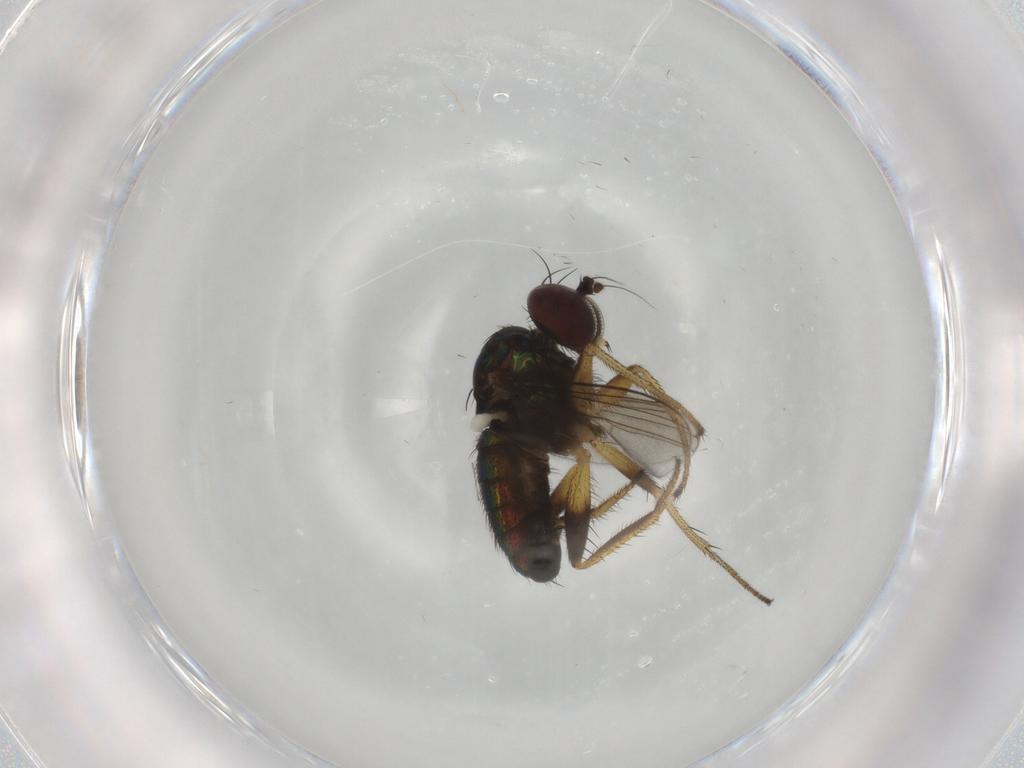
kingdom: Animalia
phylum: Arthropoda
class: Insecta
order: Diptera
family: Dolichopodidae
